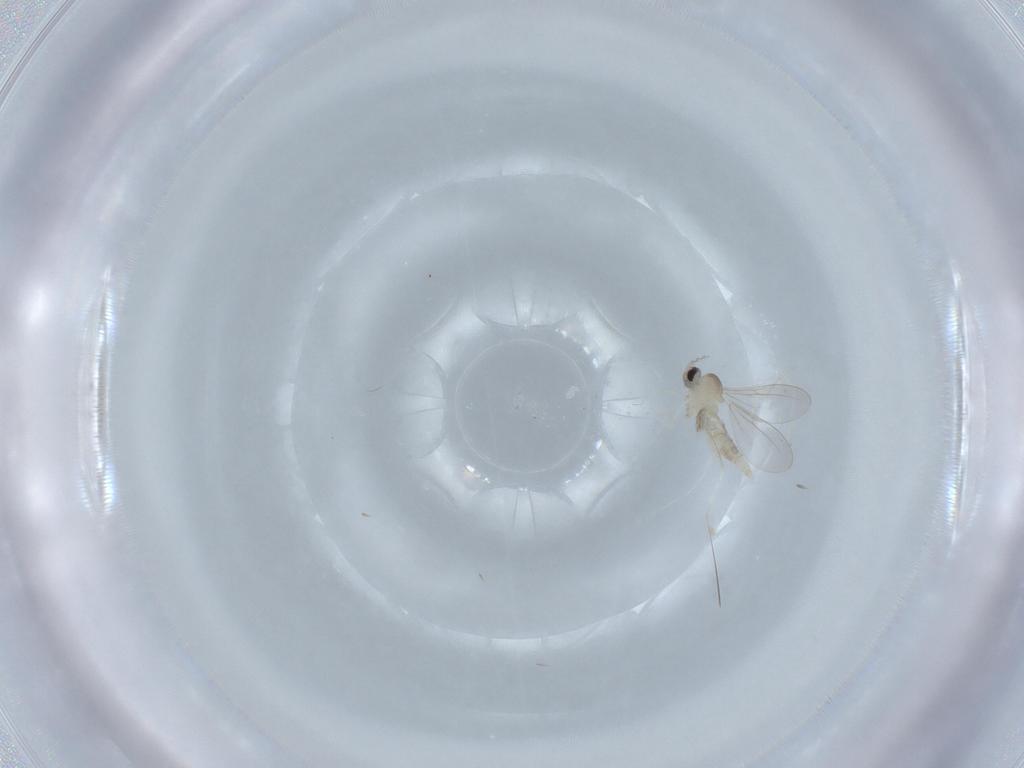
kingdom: Animalia
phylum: Arthropoda
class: Insecta
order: Diptera
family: Cecidomyiidae
